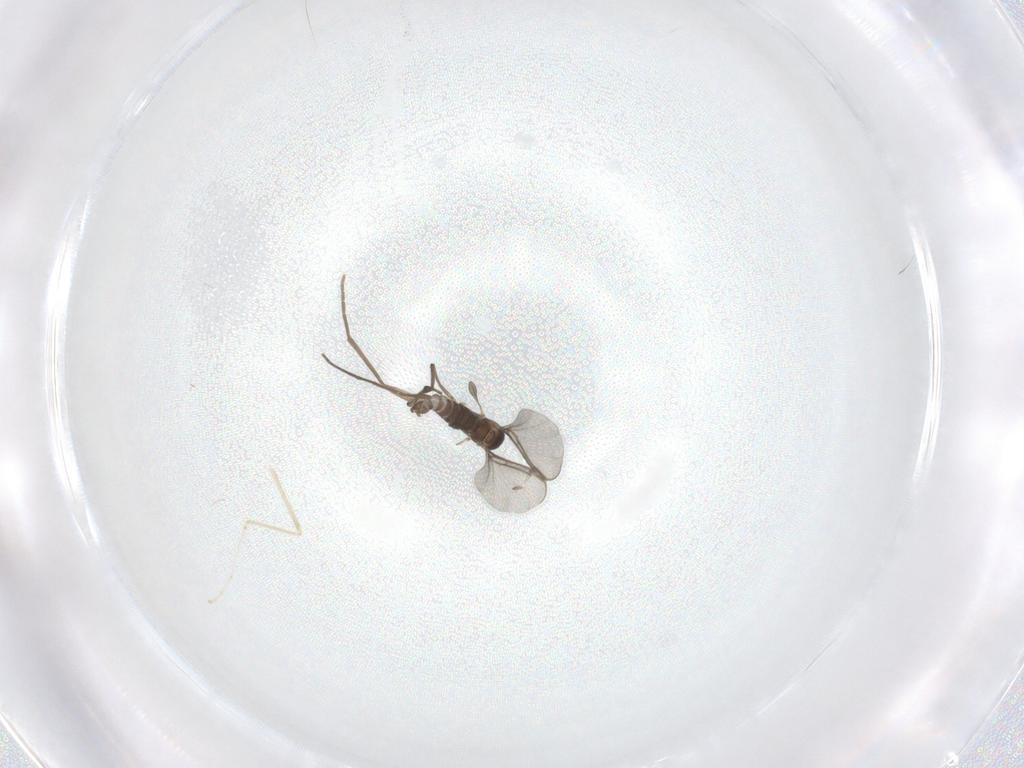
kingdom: Animalia
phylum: Arthropoda
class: Insecta
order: Diptera
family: Sciaridae
